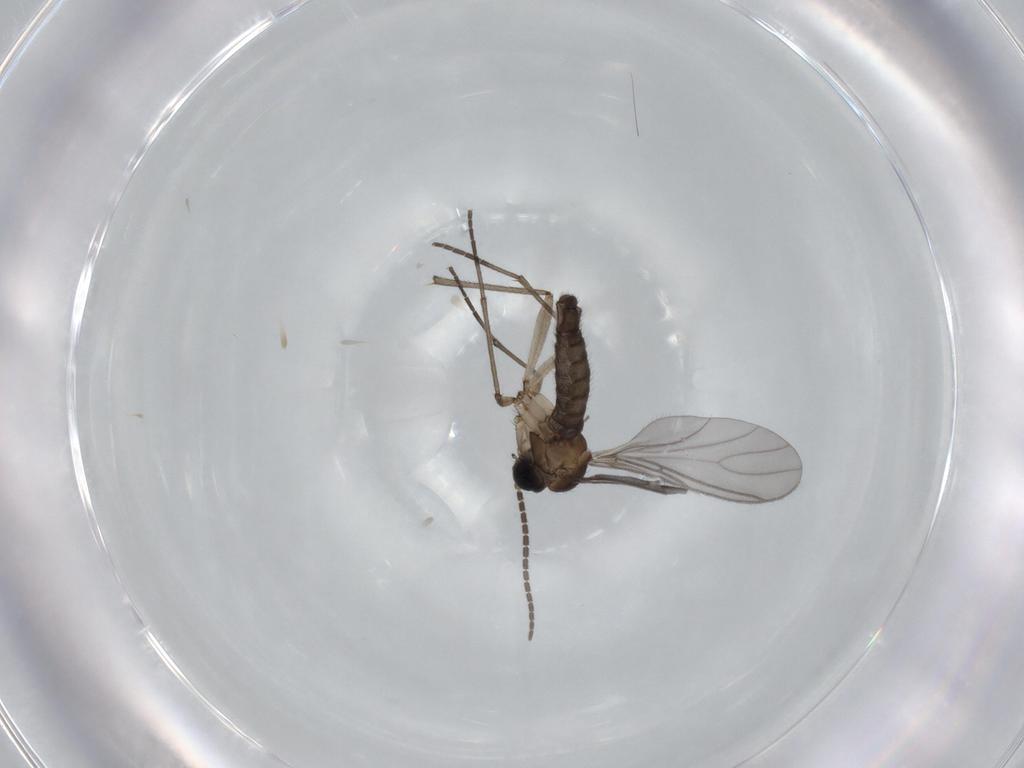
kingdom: Animalia
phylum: Arthropoda
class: Insecta
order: Diptera
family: Sciaridae
